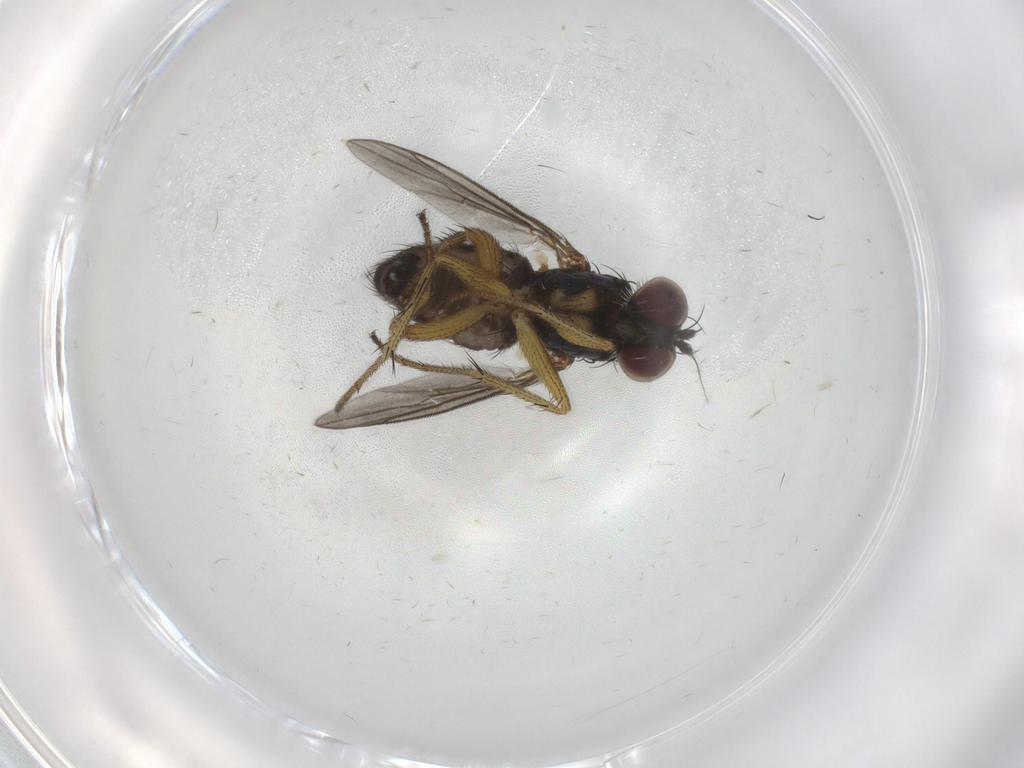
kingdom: Animalia
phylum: Arthropoda
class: Insecta
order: Diptera
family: Dolichopodidae
